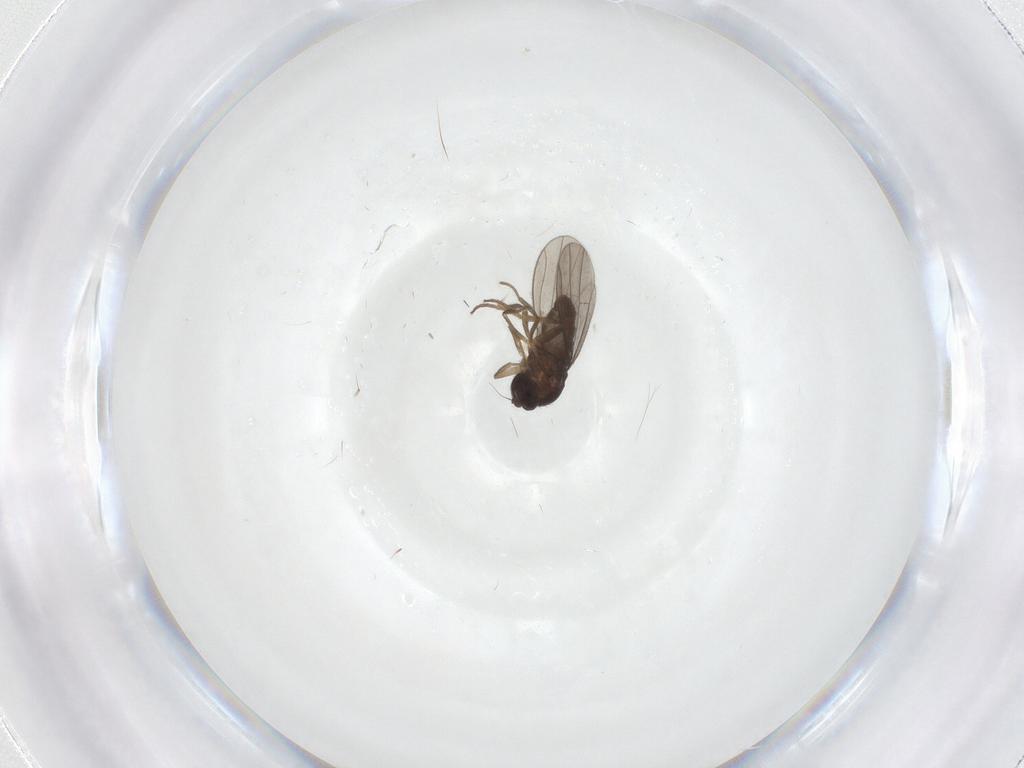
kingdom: Animalia
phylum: Arthropoda
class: Insecta
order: Diptera
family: Dolichopodidae
